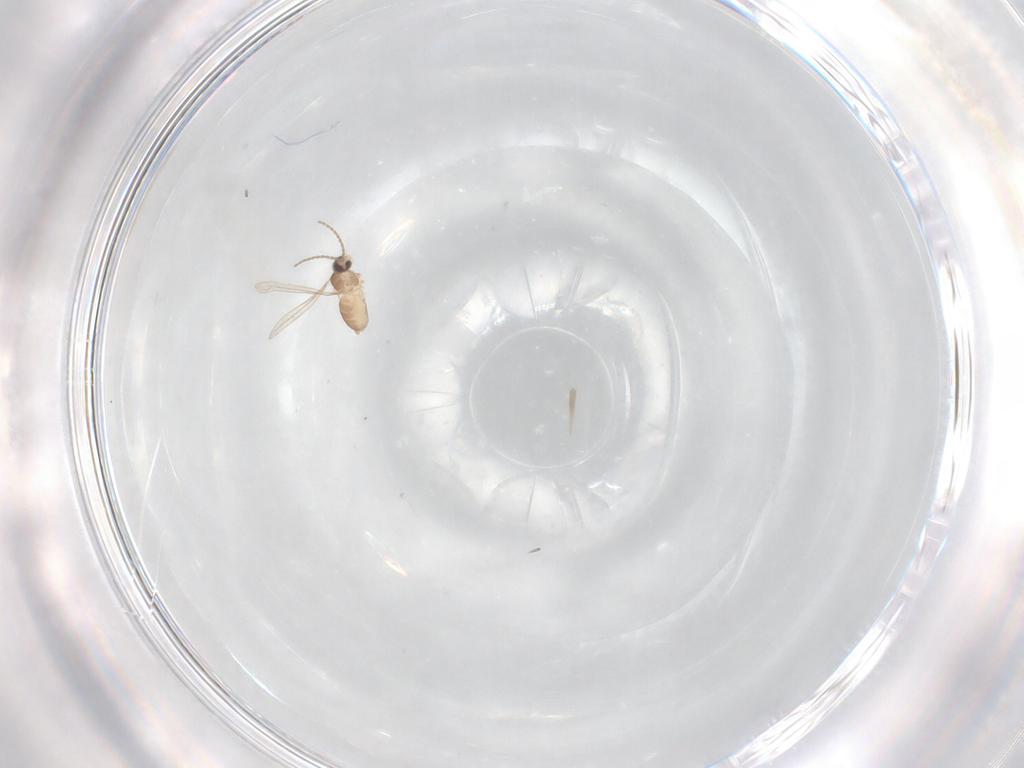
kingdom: Animalia
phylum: Arthropoda
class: Insecta
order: Diptera
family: Cecidomyiidae
